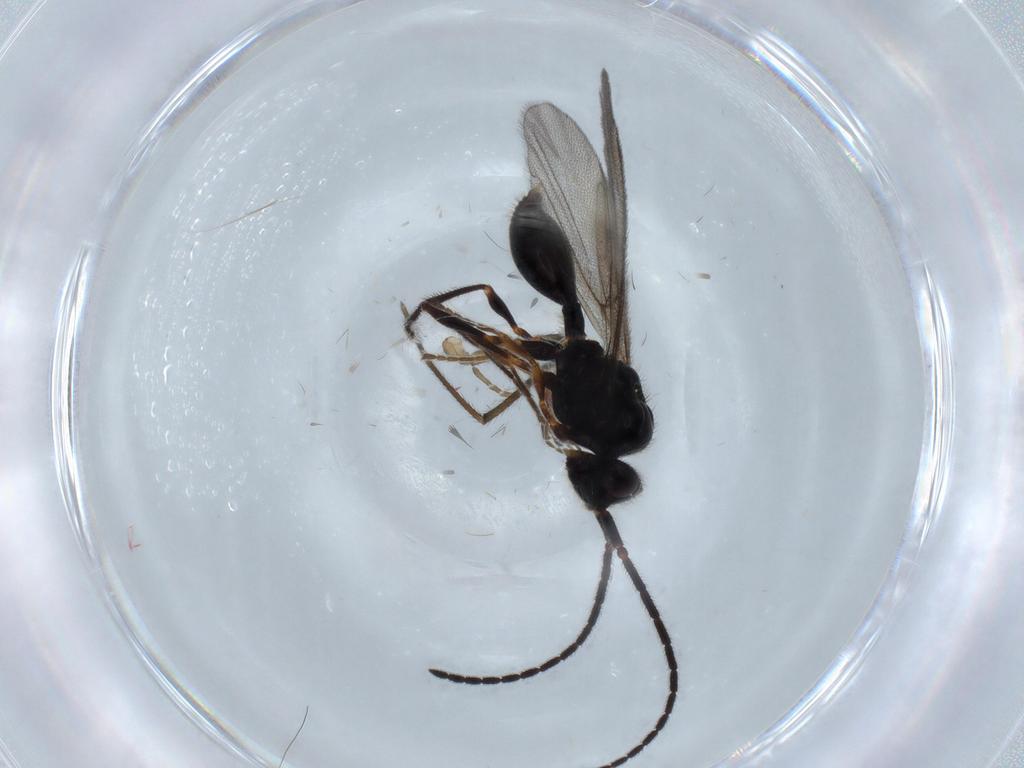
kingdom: Animalia
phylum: Arthropoda
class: Insecta
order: Hymenoptera
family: Diapriidae
